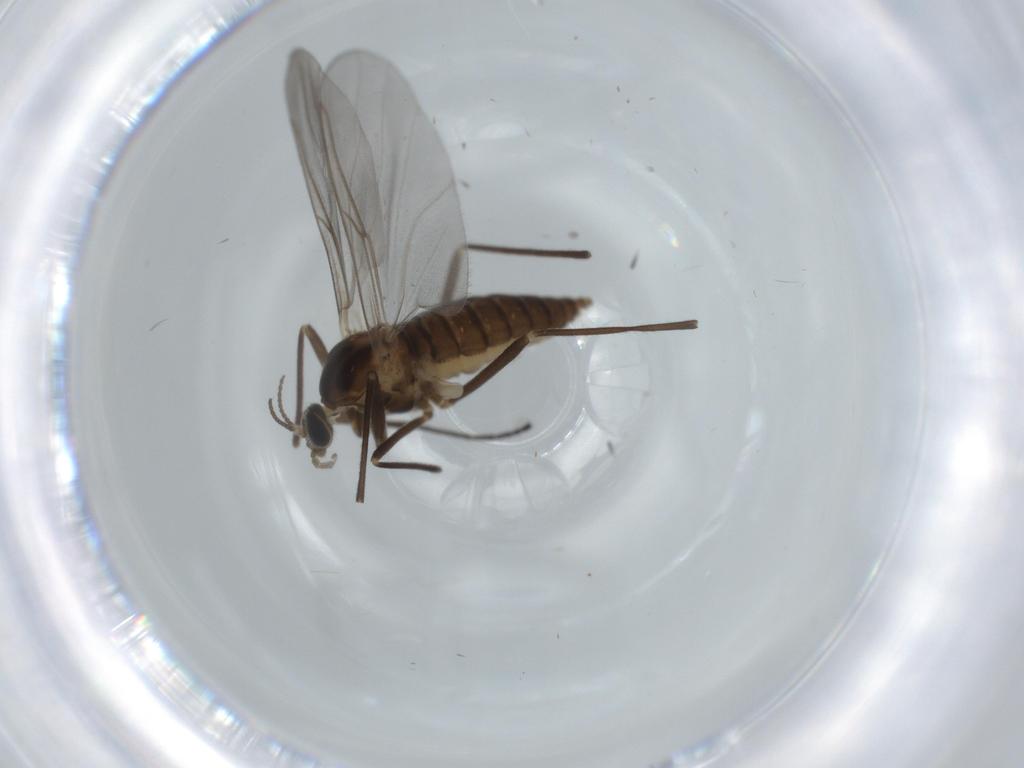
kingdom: Animalia
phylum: Arthropoda
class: Insecta
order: Diptera
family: Cecidomyiidae
